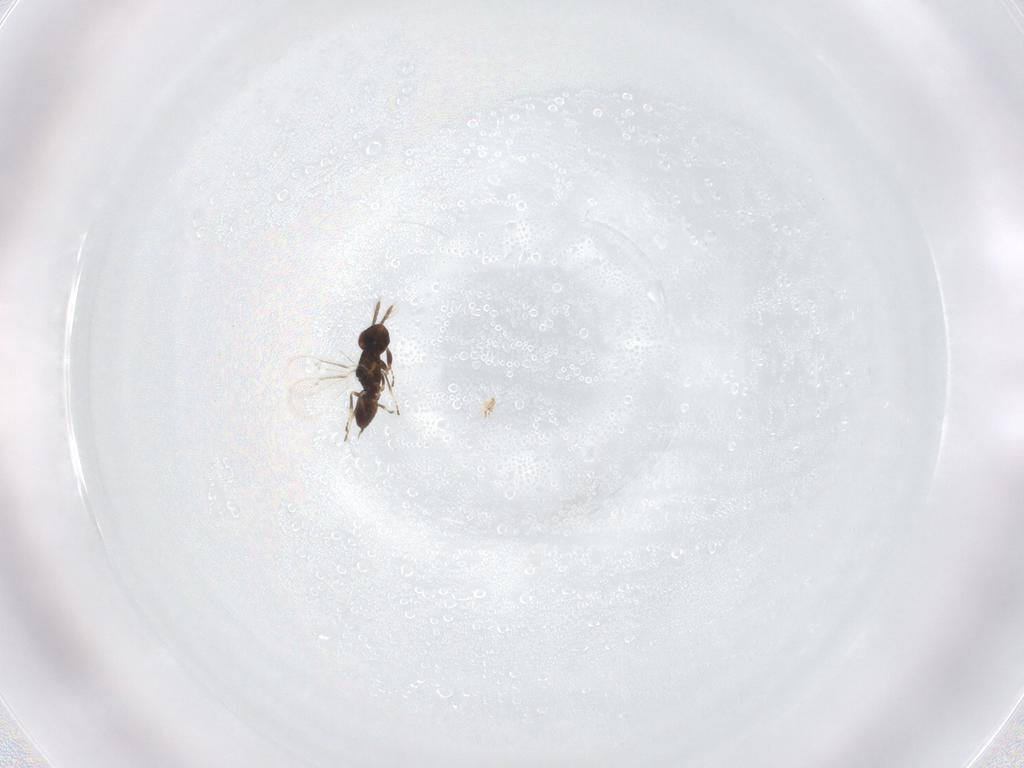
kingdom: Animalia
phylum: Arthropoda
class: Insecta
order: Hymenoptera
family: Eulophidae
